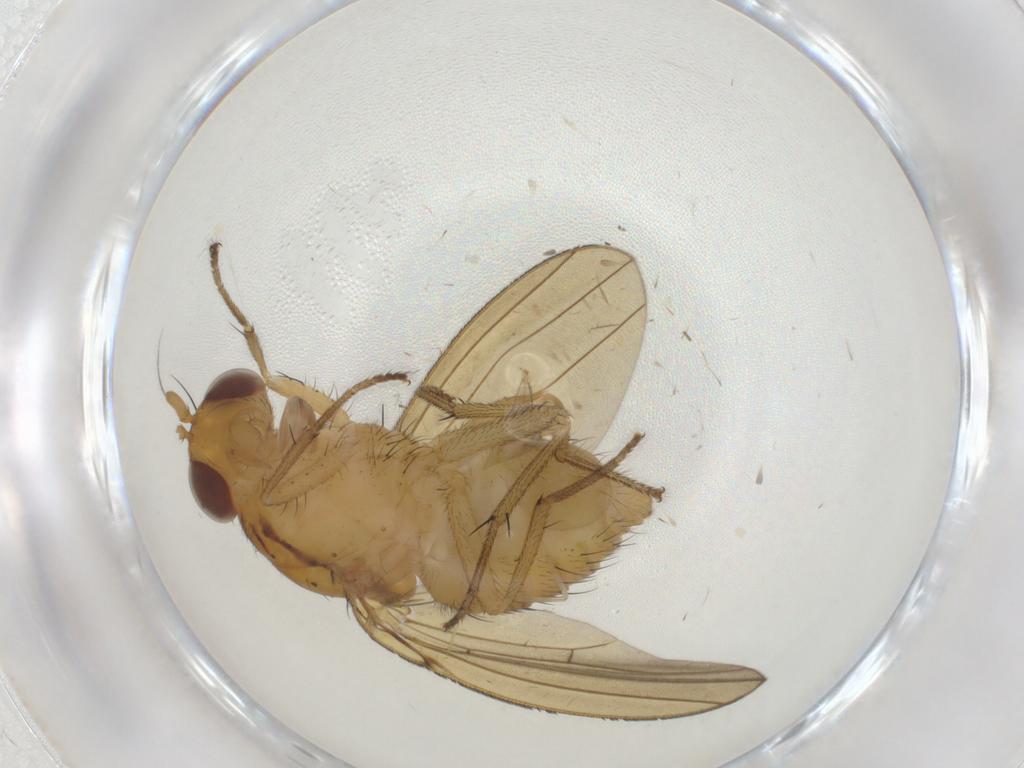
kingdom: Animalia
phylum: Arthropoda
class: Insecta
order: Diptera
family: Lauxaniidae
